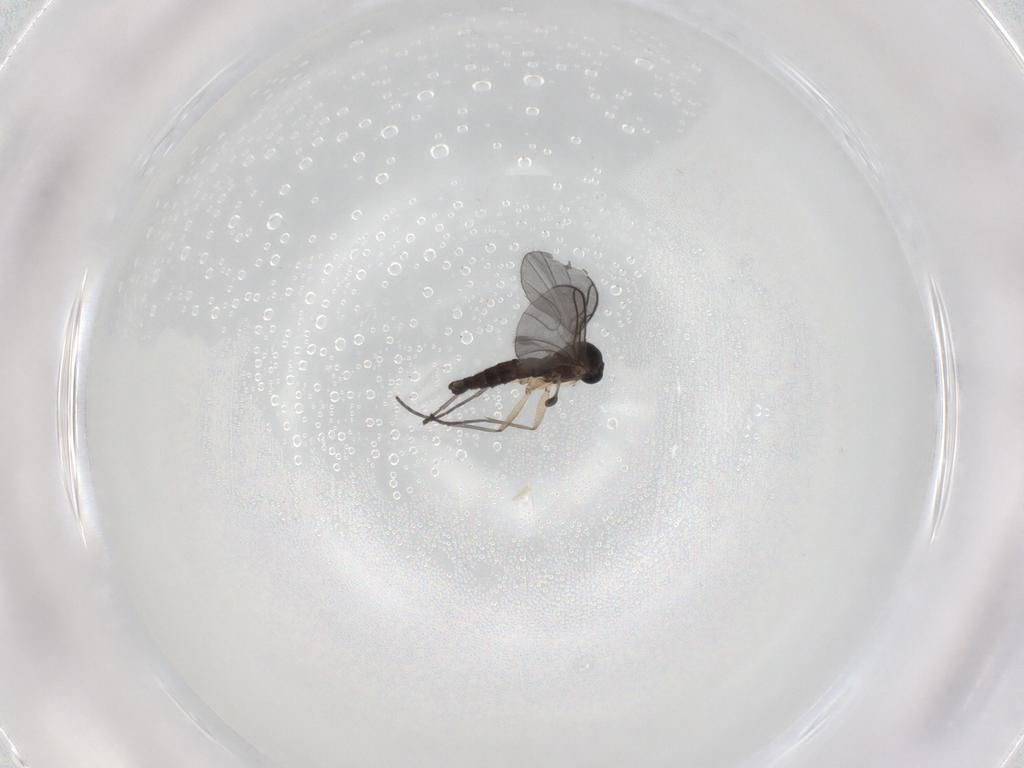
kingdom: Animalia
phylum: Arthropoda
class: Insecta
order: Diptera
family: Sciaridae
